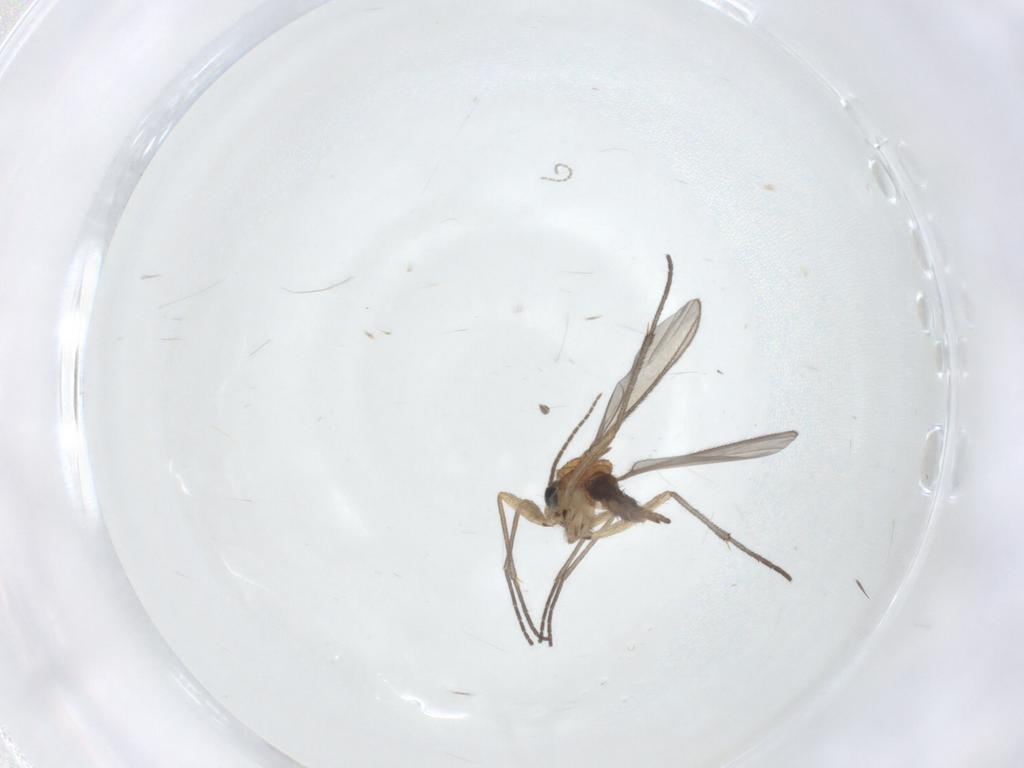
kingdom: Animalia
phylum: Arthropoda
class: Insecta
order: Diptera
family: Sciaridae
